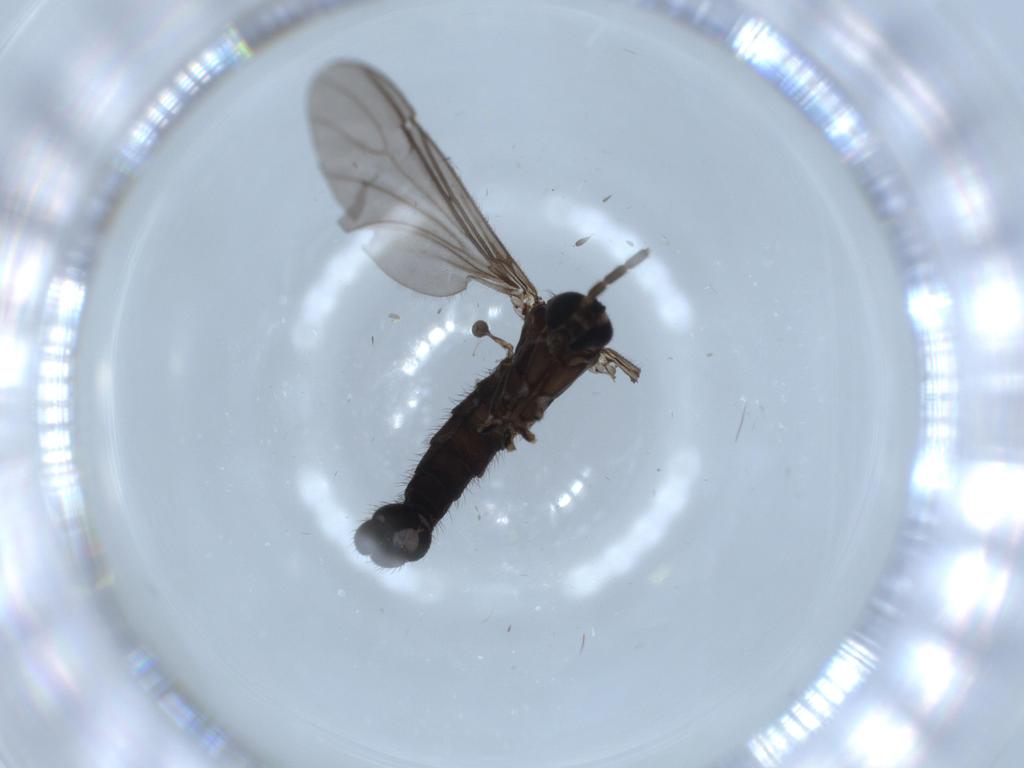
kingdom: Animalia
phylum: Arthropoda
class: Insecta
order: Diptera
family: Sciaridae
